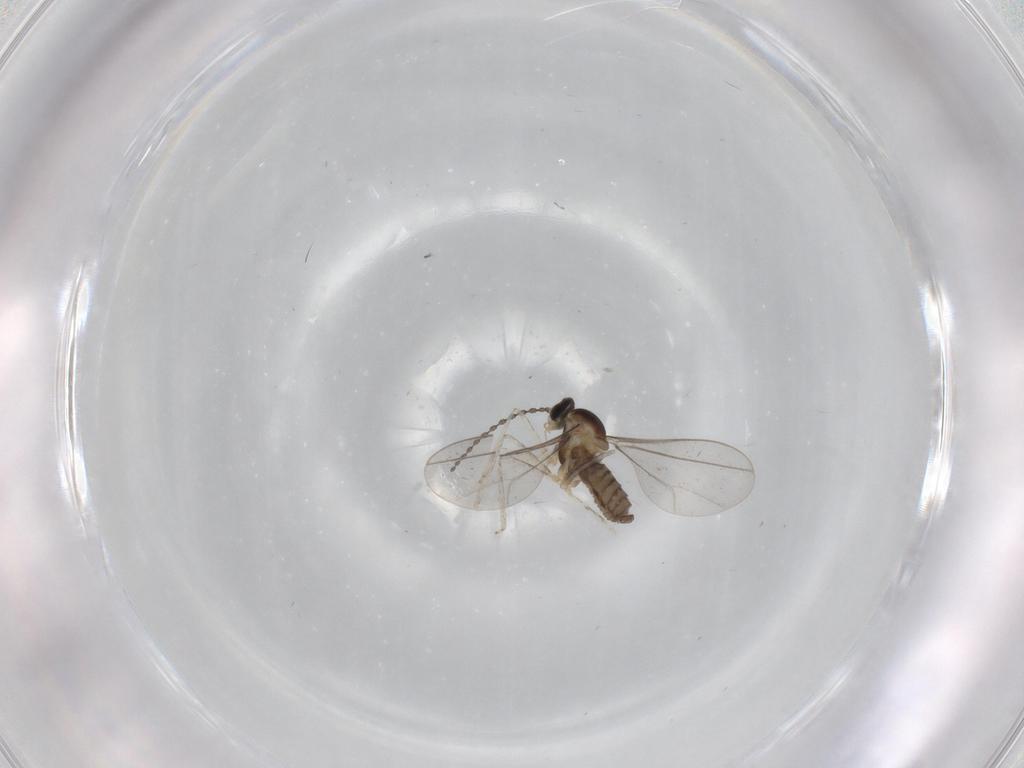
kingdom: Animalia
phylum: Arthropoda
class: Insecta
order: Diptera
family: Cecidomyiidae
